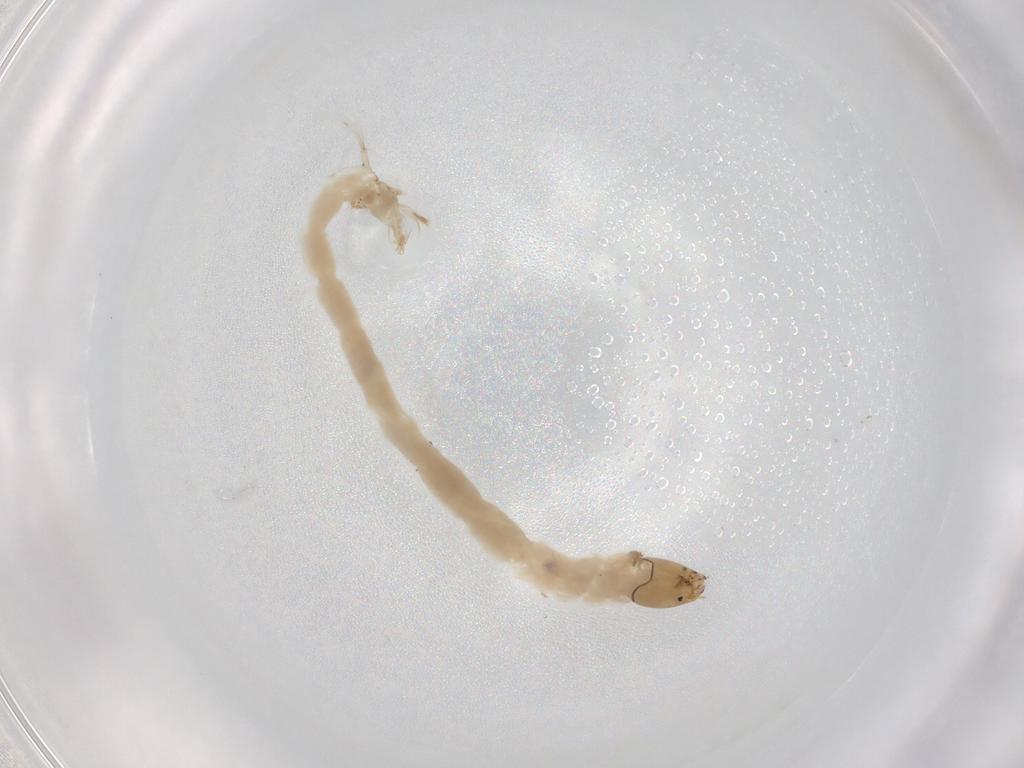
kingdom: Animalia
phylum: Arthropoda
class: Insecta
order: Diptera
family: Chironomidae
